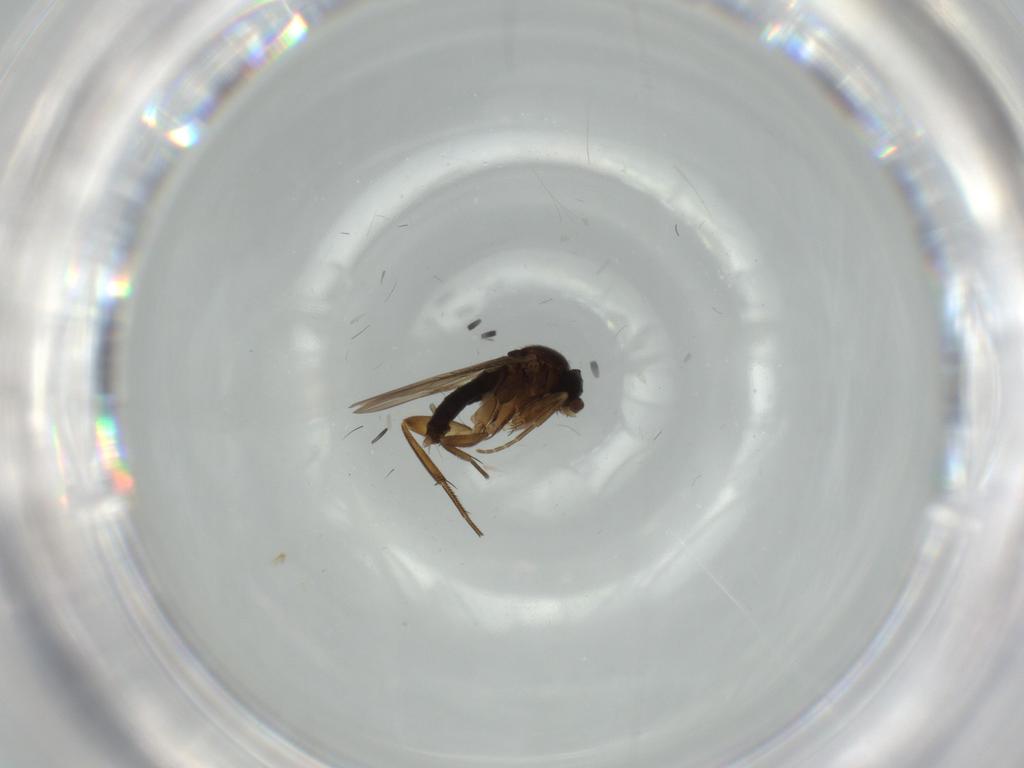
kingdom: Animalia
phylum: Arthropoda
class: Insecta
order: Diptera
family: Phoridae
